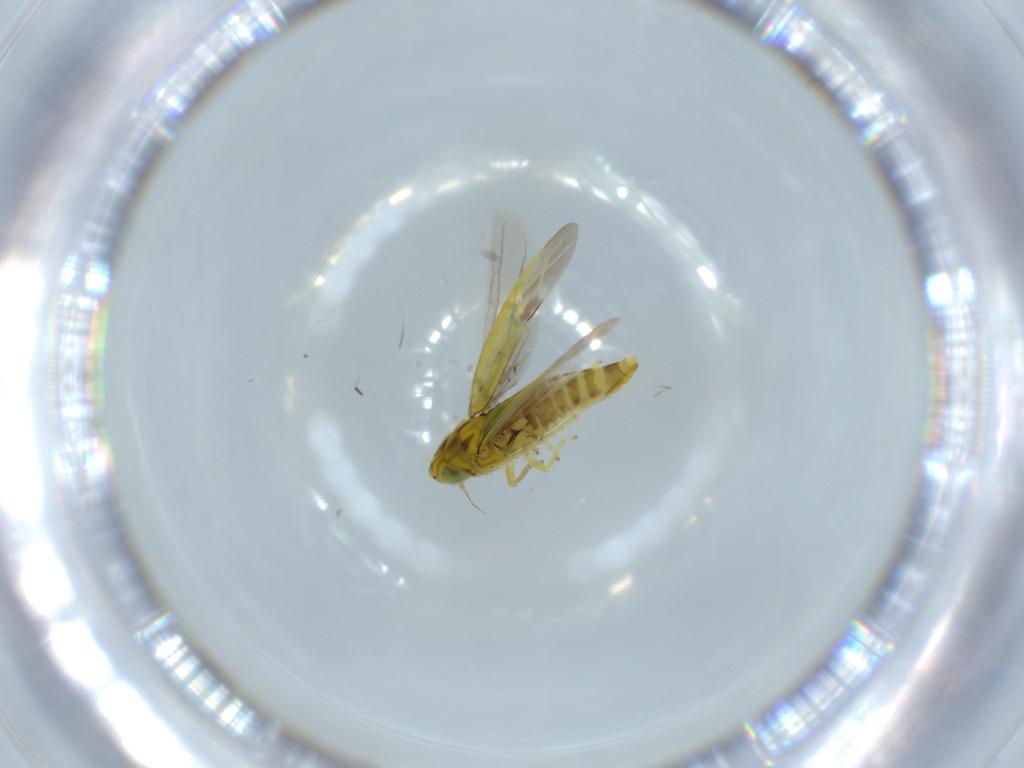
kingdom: Animalia
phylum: Arthropoda
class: Insecta
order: Hemiptera
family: Cicadellidae
